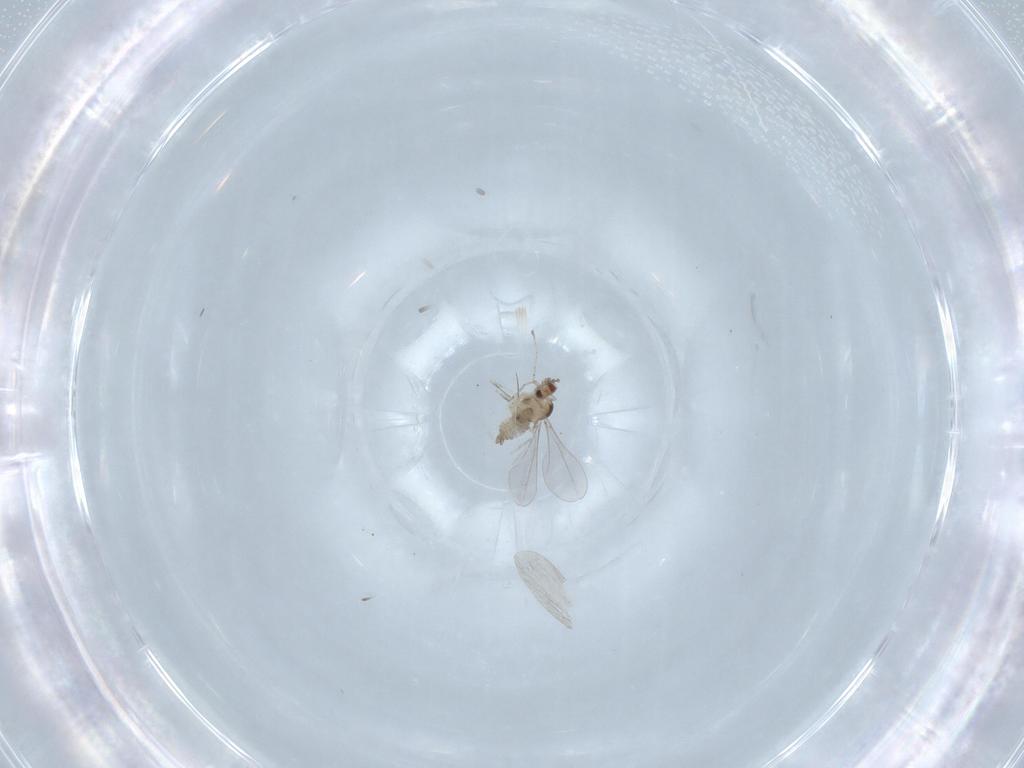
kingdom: Animalia
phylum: Arthropoda
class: Insecta
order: Diptera
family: Cecidomyiidae
